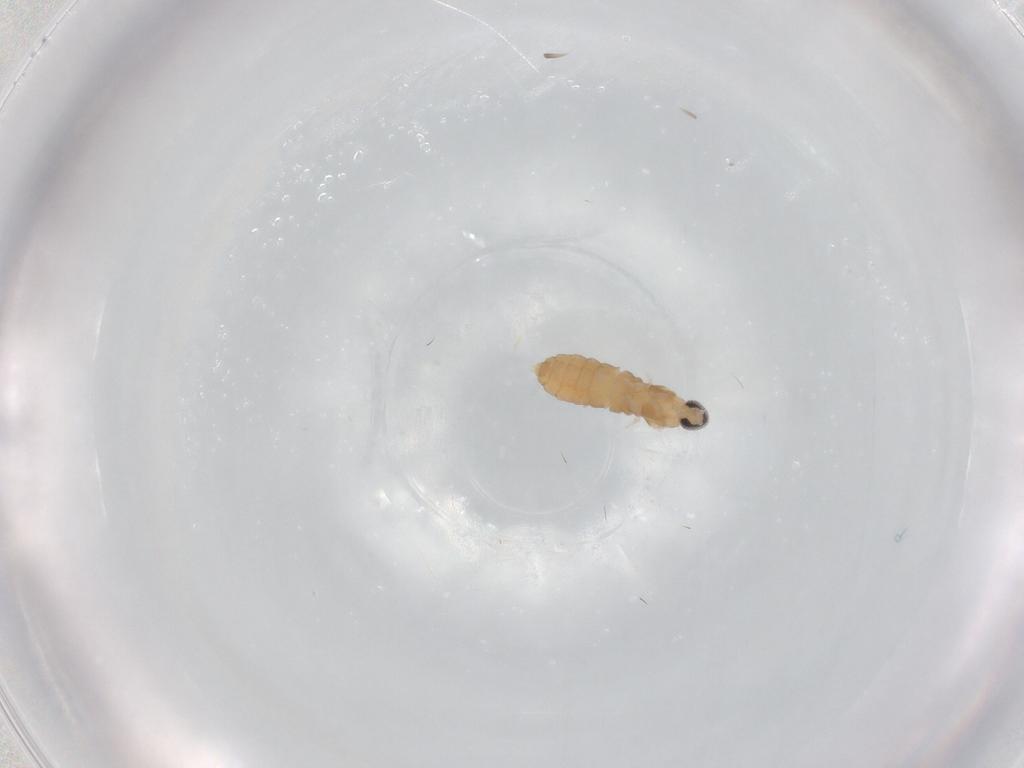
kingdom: Animalia
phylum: Arthropoda
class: Insecta
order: Diptera
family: Cecidomyiidae
